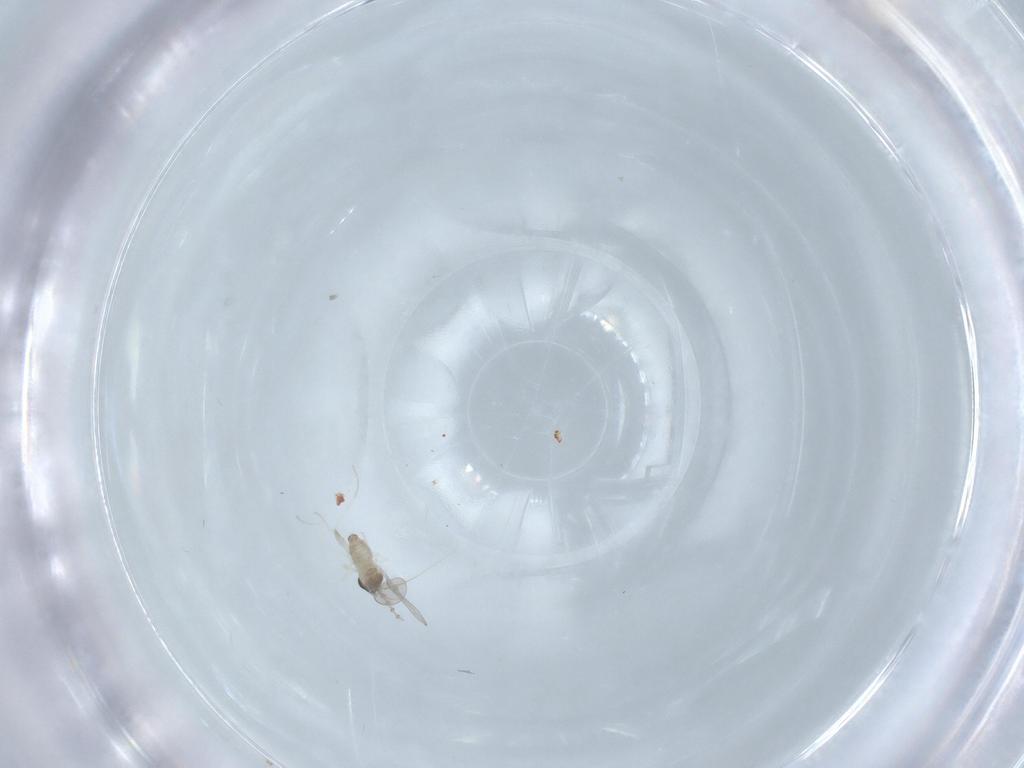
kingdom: Animalia
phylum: Arthropoda
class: Insecta
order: Diptera
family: Cecidomyiidae
